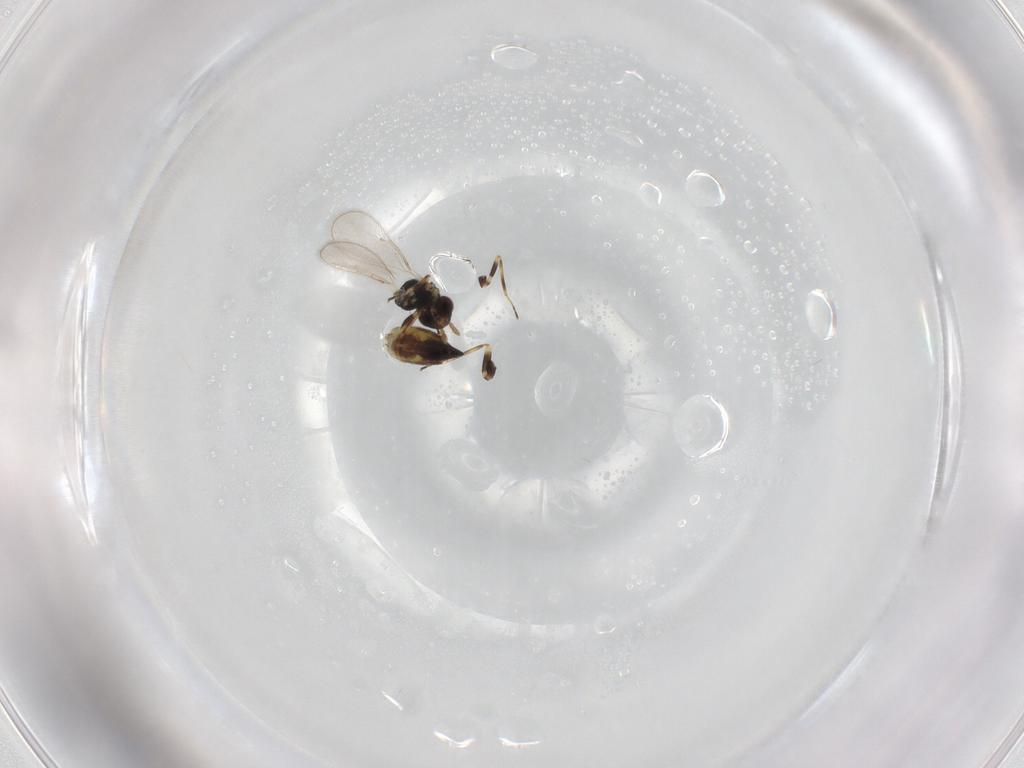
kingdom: Animalia
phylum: Arthropoda
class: Insecta
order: Hymenoptera
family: Eulophidae
